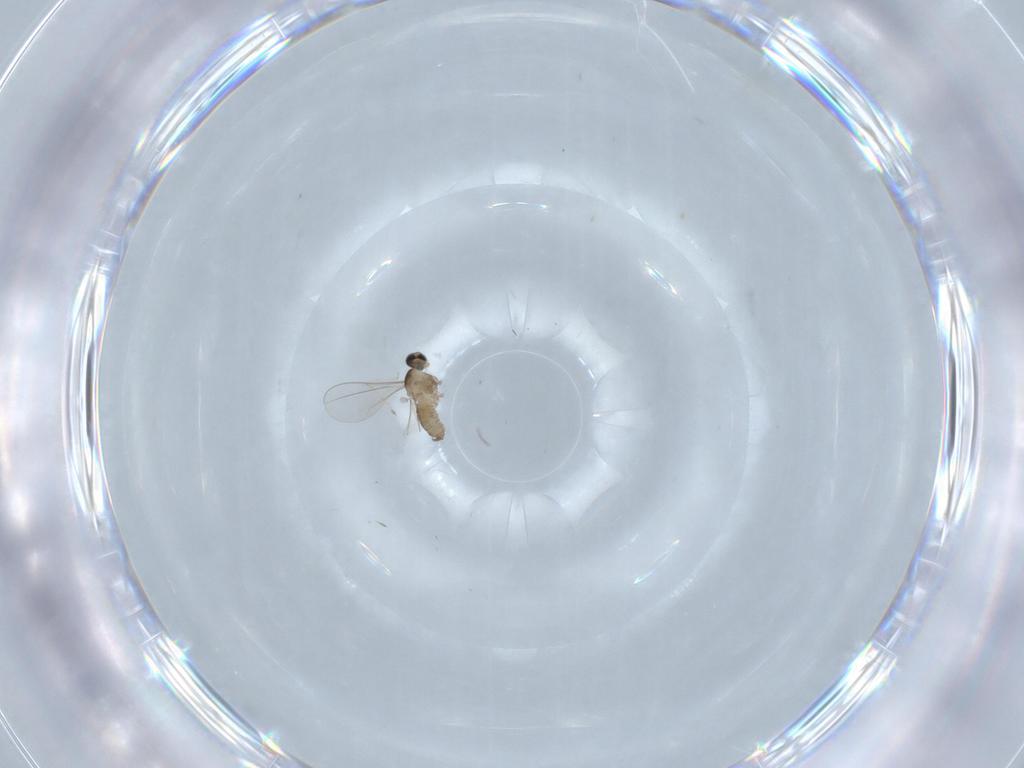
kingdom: Animalia
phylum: Arthropoda
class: Insecta
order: Diptera
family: Cecidomyiidae
